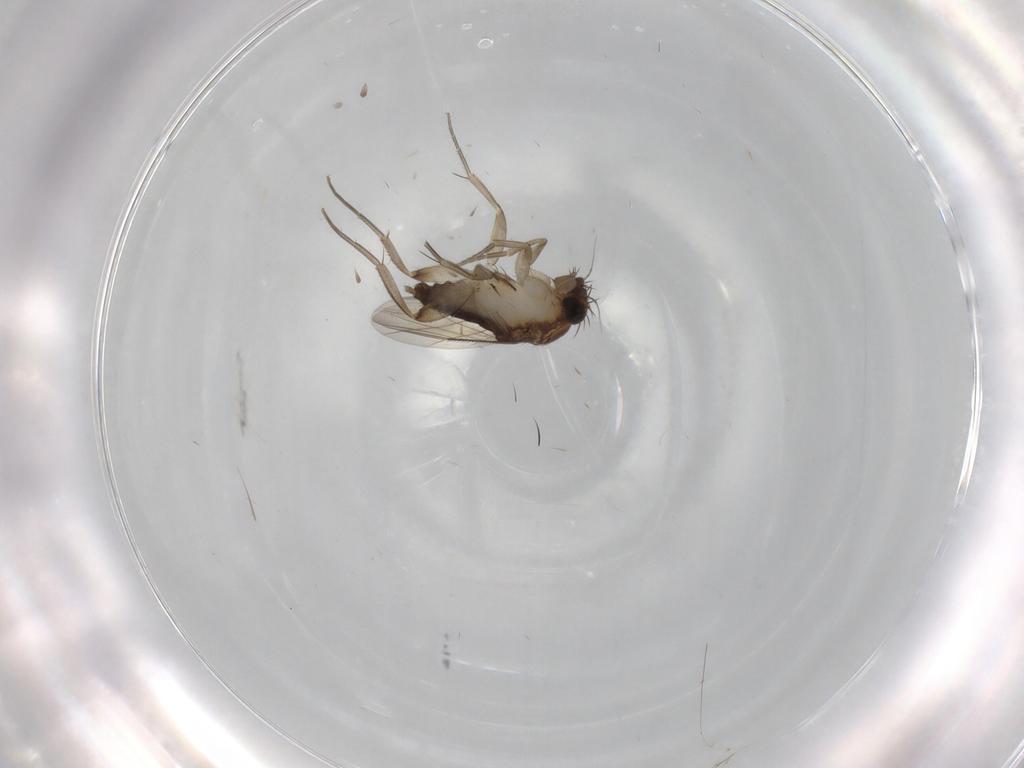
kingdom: Animalia
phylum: Arthropoda
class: Insecta
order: Diptera
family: Phoridae
